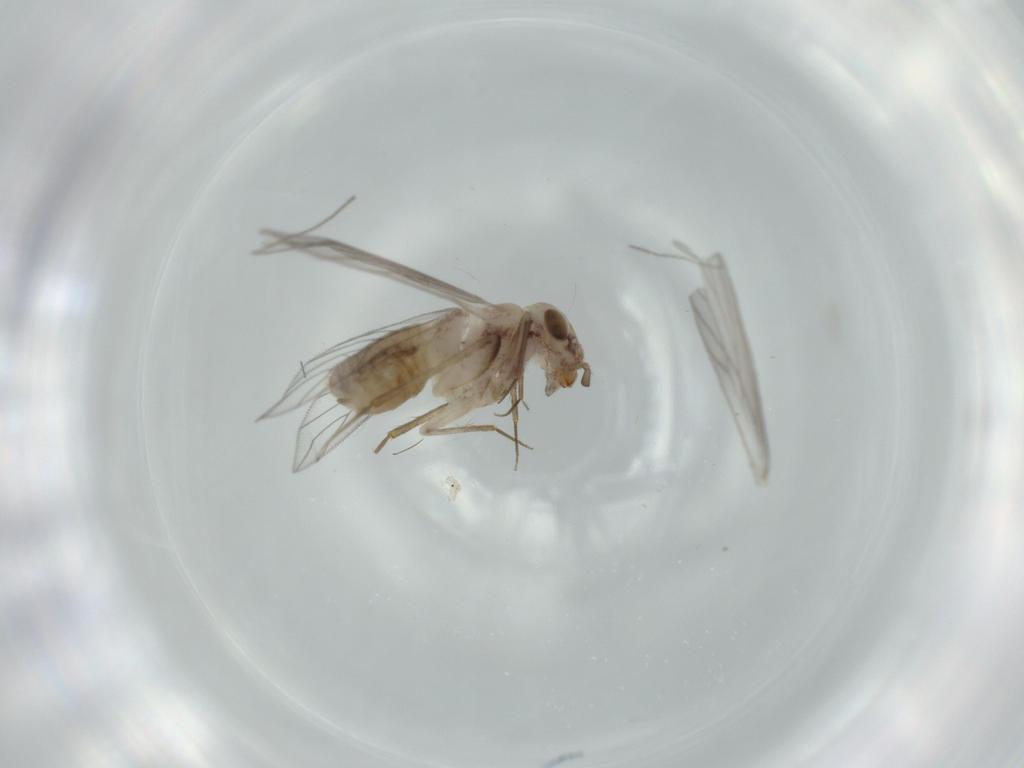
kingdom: Animalia
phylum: Arthropoda
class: Insecta
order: Psocodea
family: Lepidopsocidae
